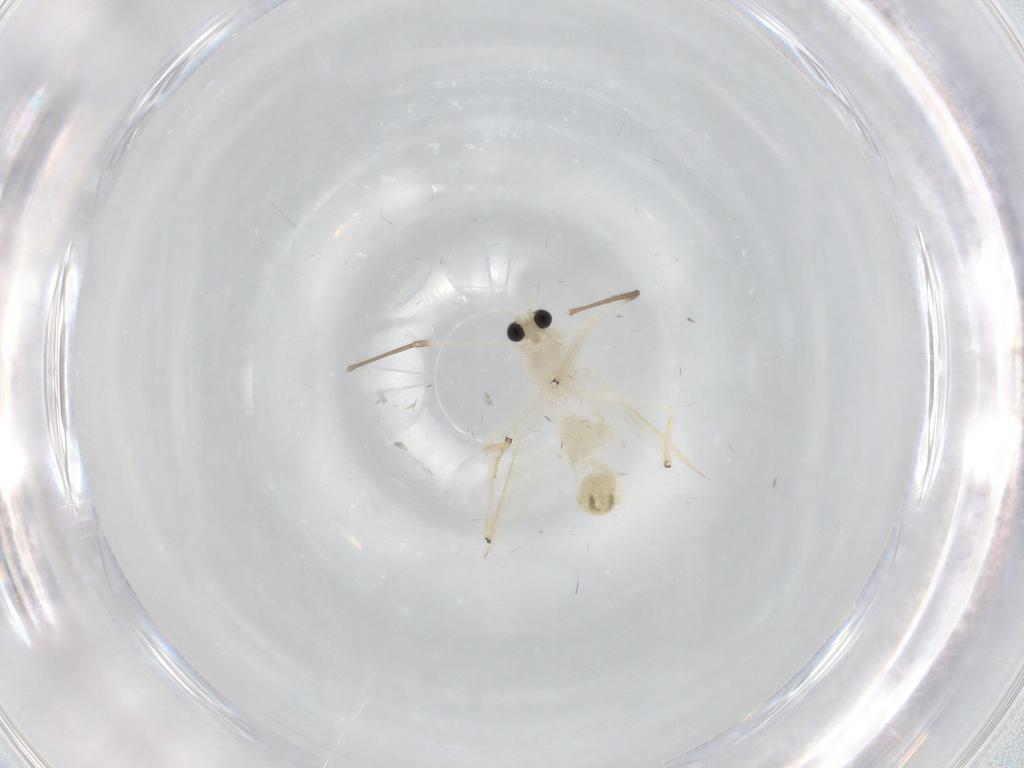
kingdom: Animalia
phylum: Arthropoda
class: Insecta
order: Diptera
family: Chironomidae
